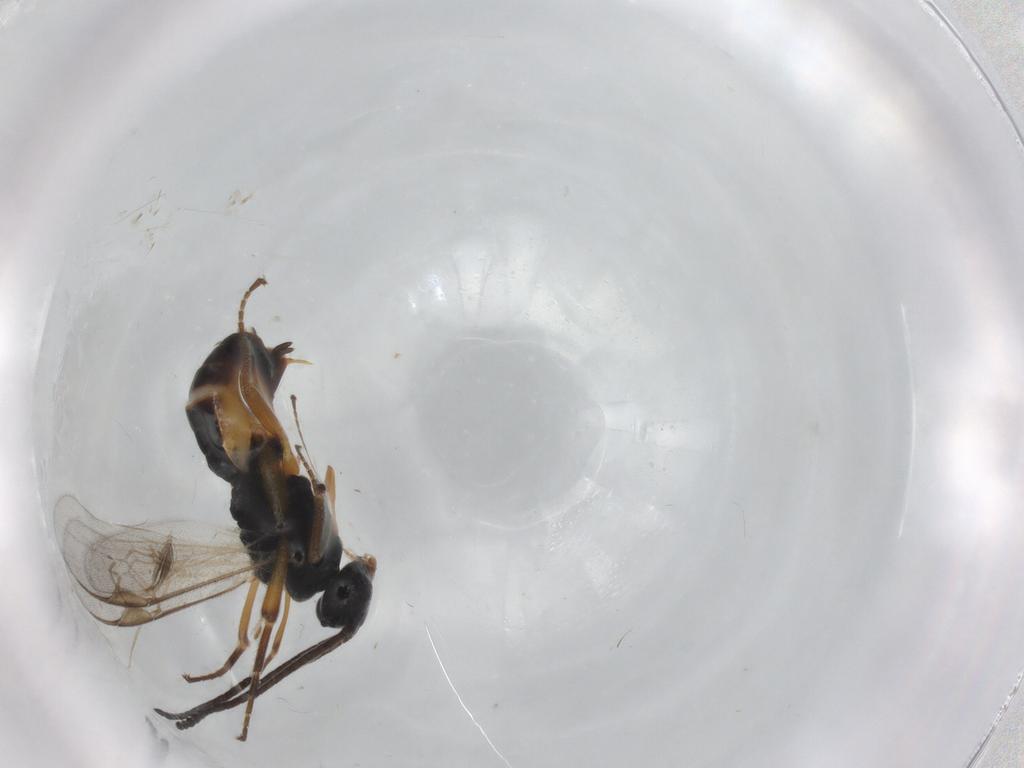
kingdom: Animalia
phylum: Arthropoda
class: Insecta
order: Hymenoptera
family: Braconidae
